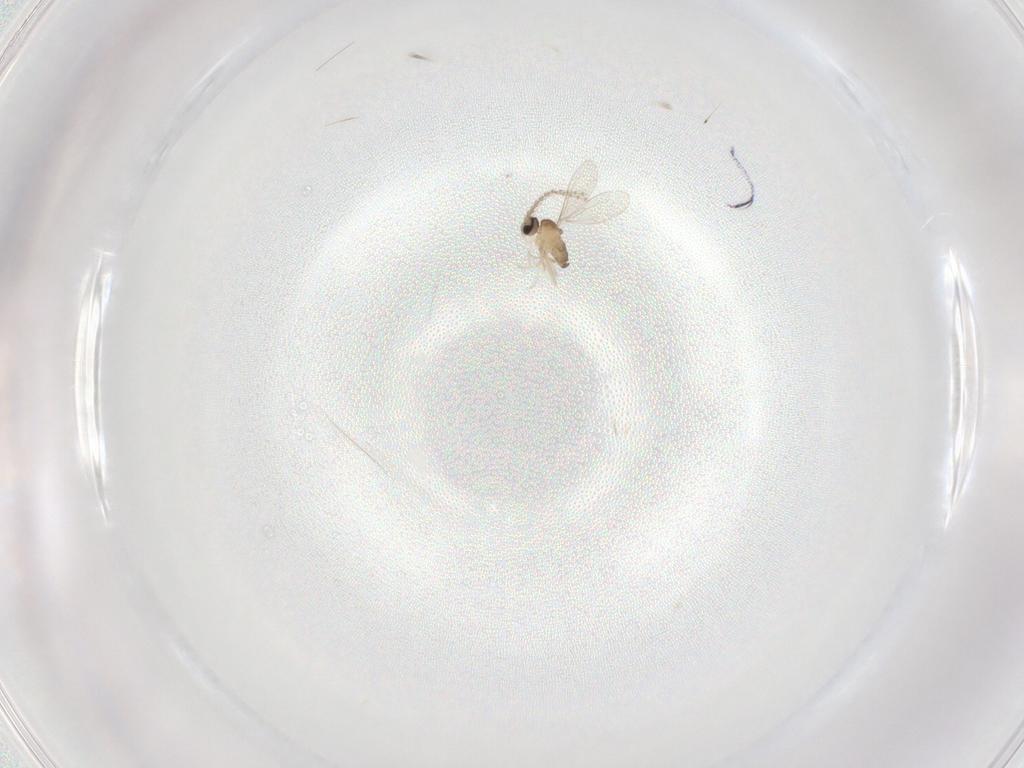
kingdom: Animalia
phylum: Arthropoda
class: Insecta
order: Diptera
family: Cecidomyiidae
